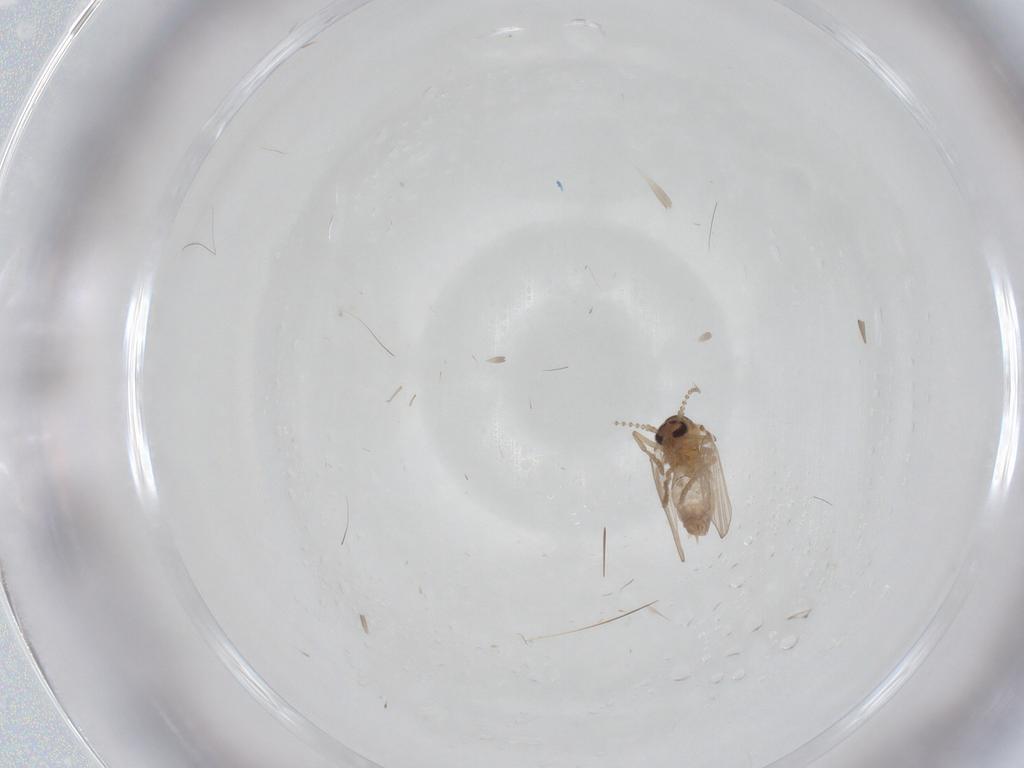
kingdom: Animalia
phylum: Arthropoda
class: Insecta
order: Diptera
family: Psychodidae
